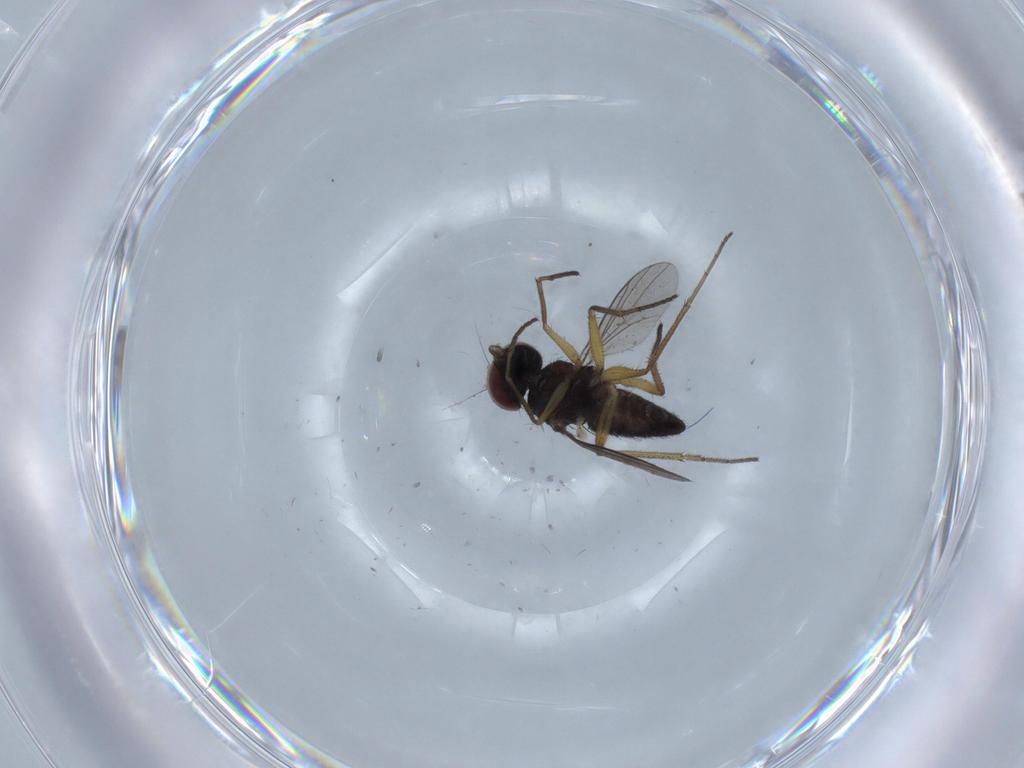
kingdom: Animalia
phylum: Arthropoda
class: Insecta
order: Diptera
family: Dolichopodidae
